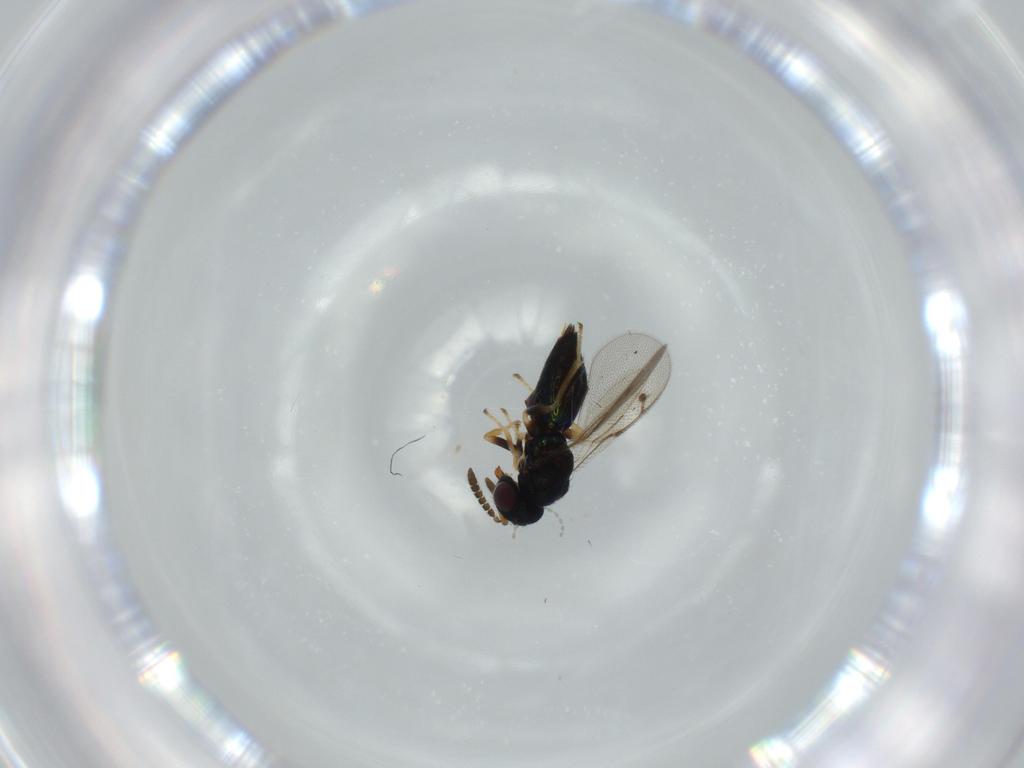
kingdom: Animalia
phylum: Arthropoda
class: Insecta
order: Hymenoptera
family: Pirenidae
